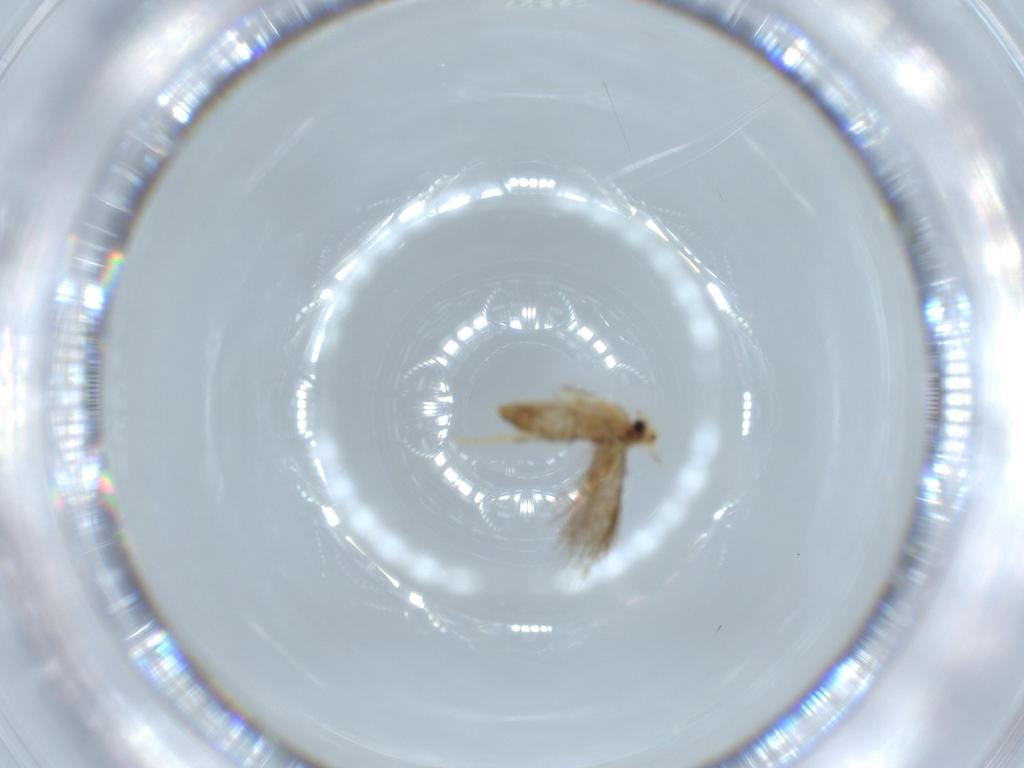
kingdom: Animalia
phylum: Arthropoda
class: Insecta
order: Lepidoptera
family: Nepticulidae
